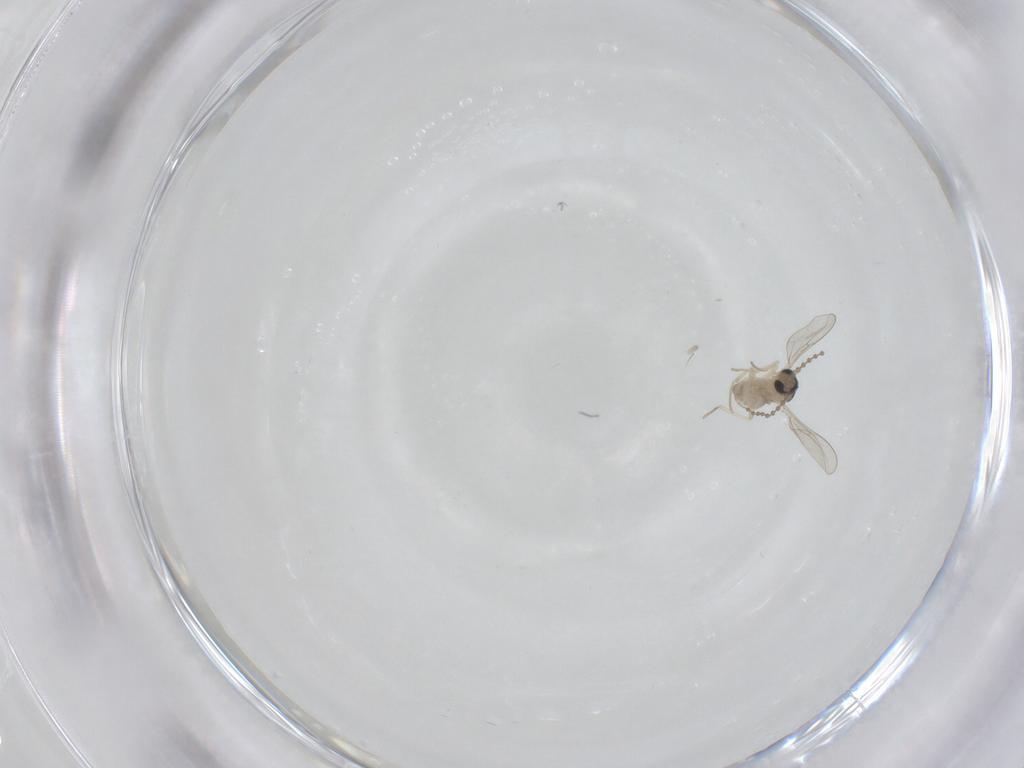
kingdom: Animalia
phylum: Arthropoda
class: Insecta
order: Diptera
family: Cecidomyiidae
